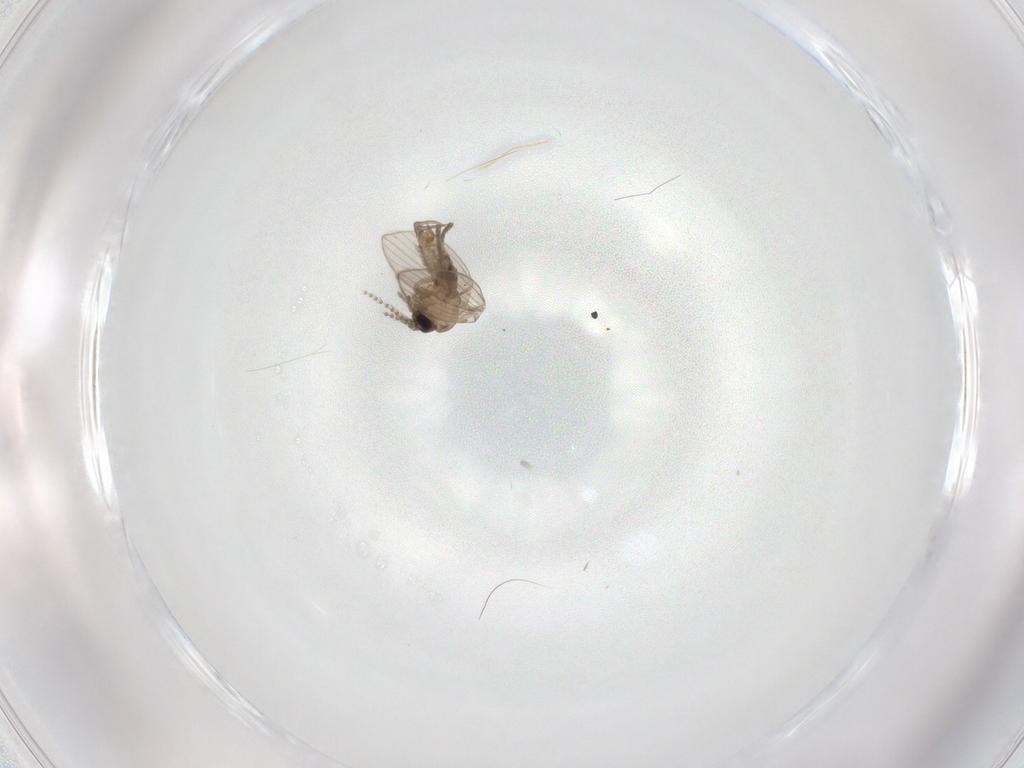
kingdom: Animalia
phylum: Arthropoda
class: Insecta
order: Diptera
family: Psychodidae
